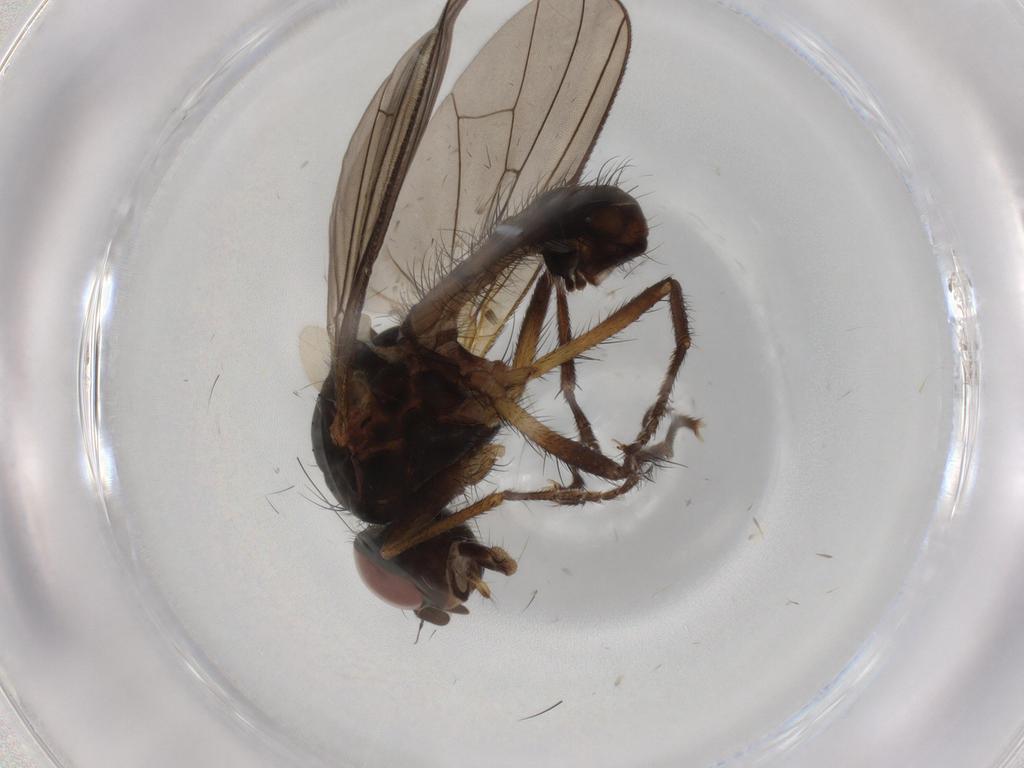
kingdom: Animalia
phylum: Arthropoda
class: Insecta
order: Diptera
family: Anthomyiidae
